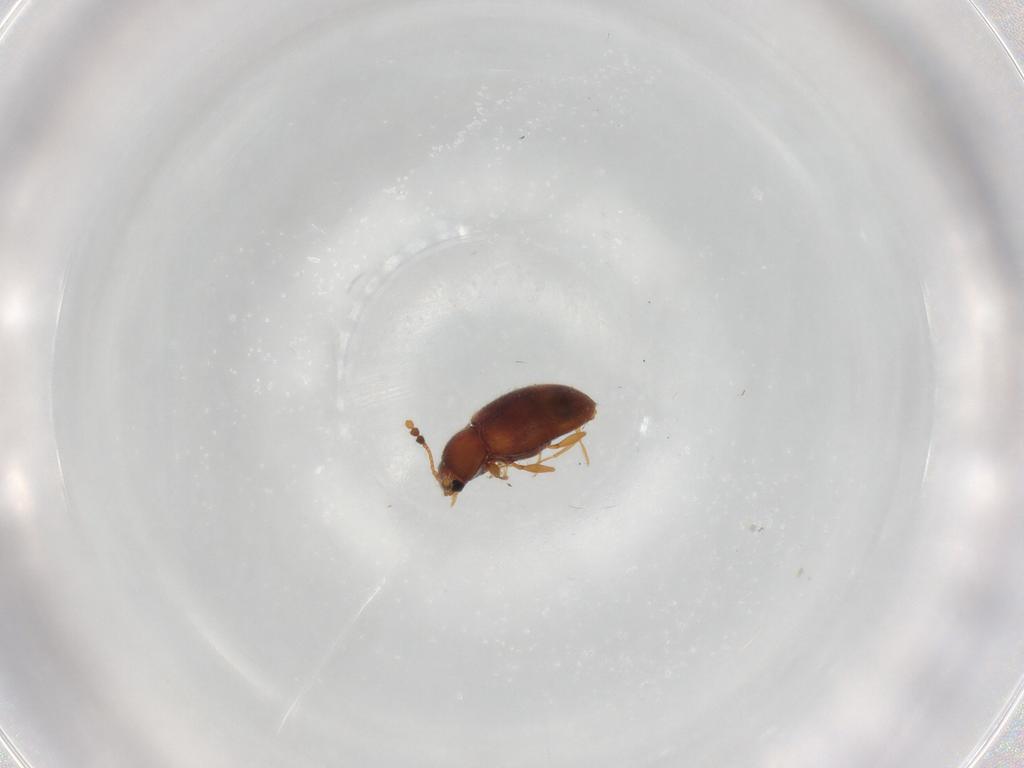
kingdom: Animalia
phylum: Arthropoda
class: Insecta
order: Coleoptera
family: Erotylidae
